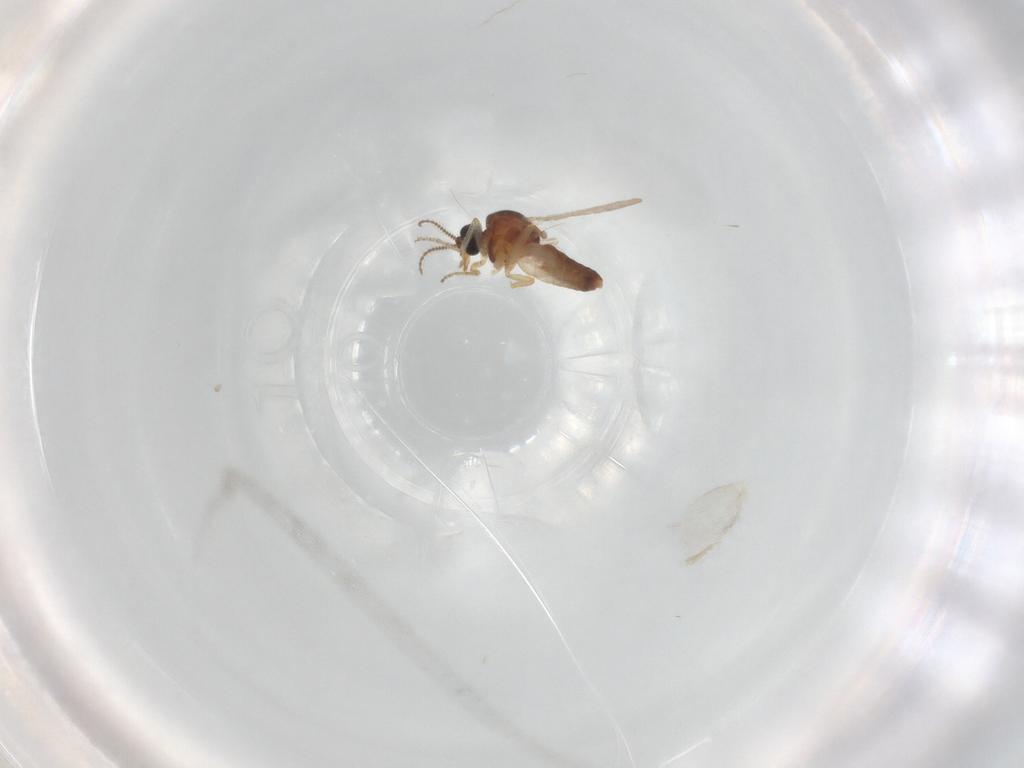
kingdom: Animalia
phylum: Arthropoda
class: Insecta
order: Diptera
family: Ceratopogonidae
